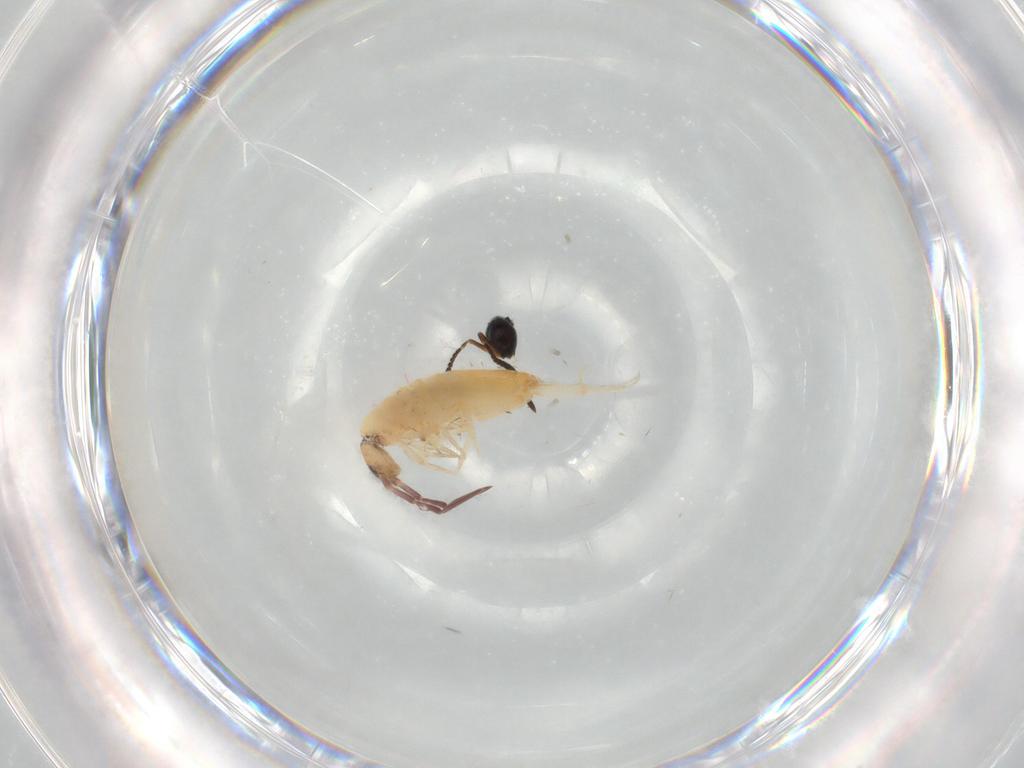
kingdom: Animalia
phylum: Arthropoda
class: Collembola
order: Entomobryomorpha
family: Entomobryidae
